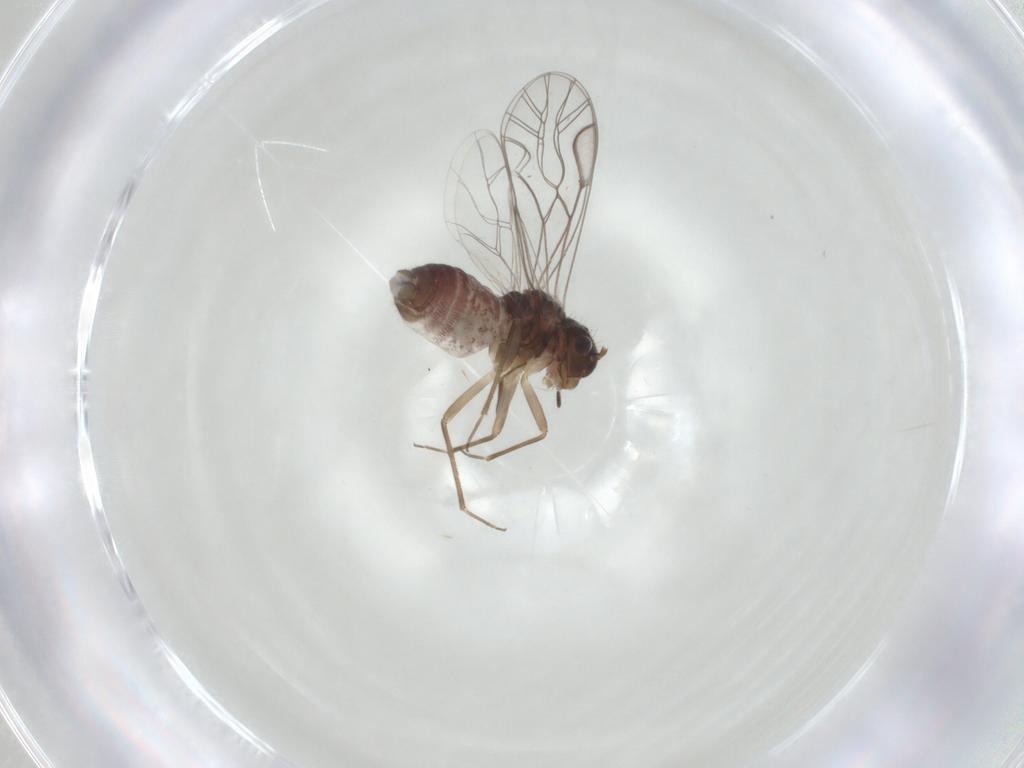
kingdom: Animalia
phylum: Arthropoda
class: Insecta
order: Psocodea
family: Lachesillidae
